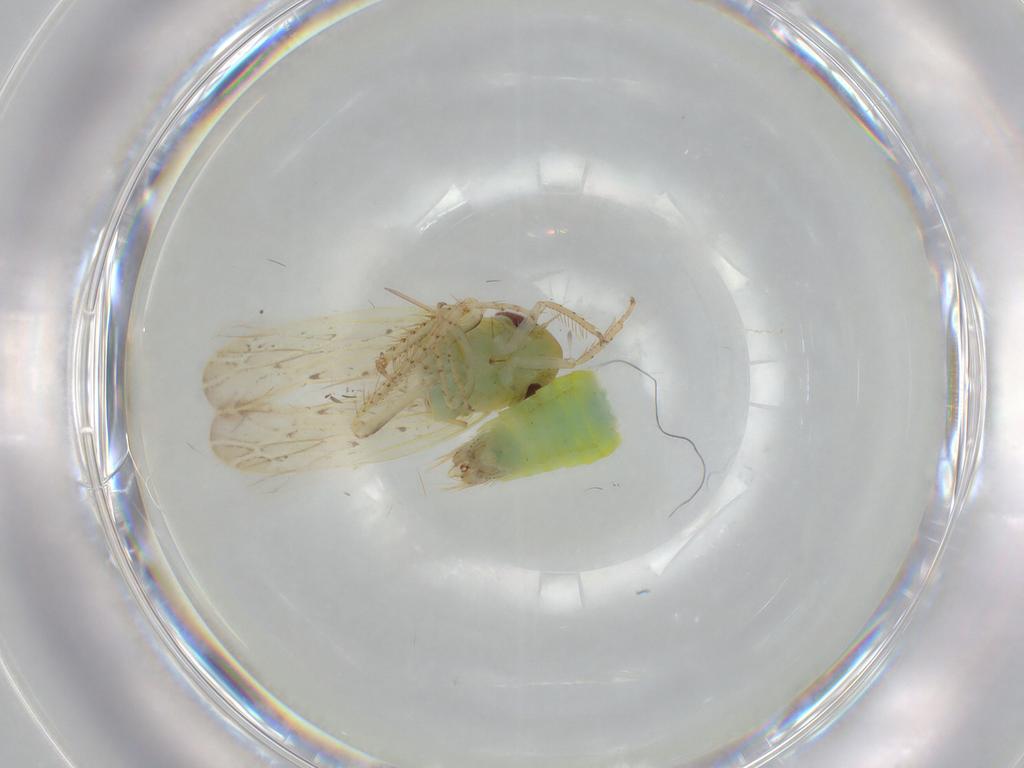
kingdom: Animalia
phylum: Arthropoda
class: Insecta
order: Hemiptera
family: Cicadellidae
